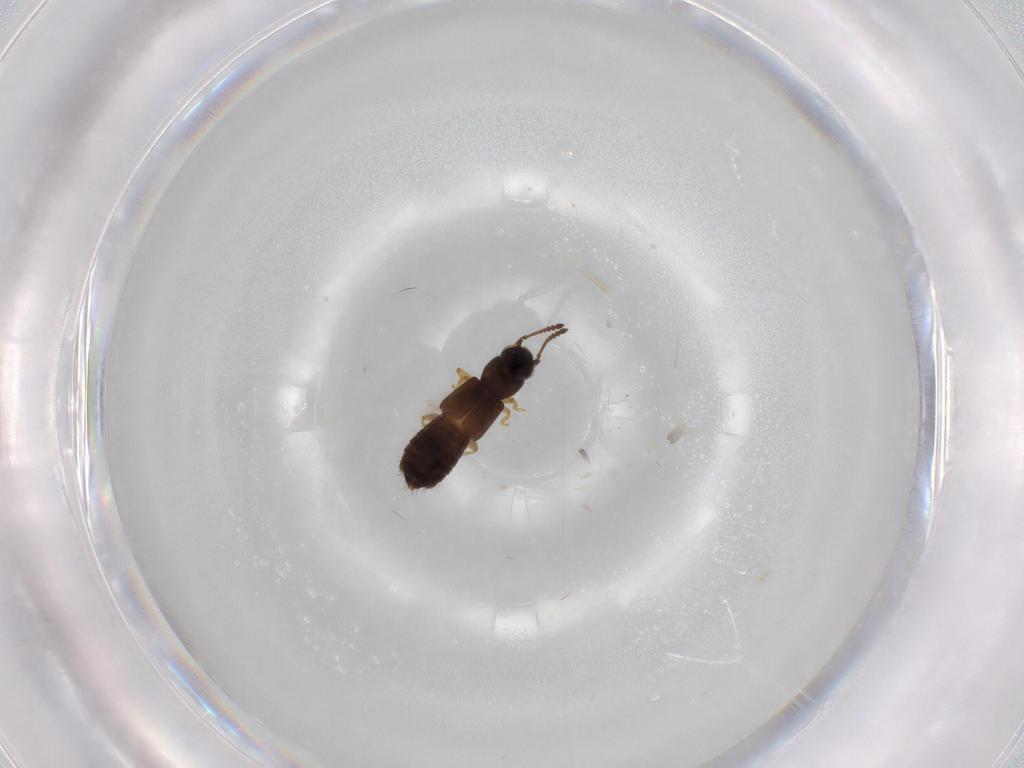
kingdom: Animalia
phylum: Arthropoda
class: Insecta
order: Coleoptera
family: Staphylinidae
